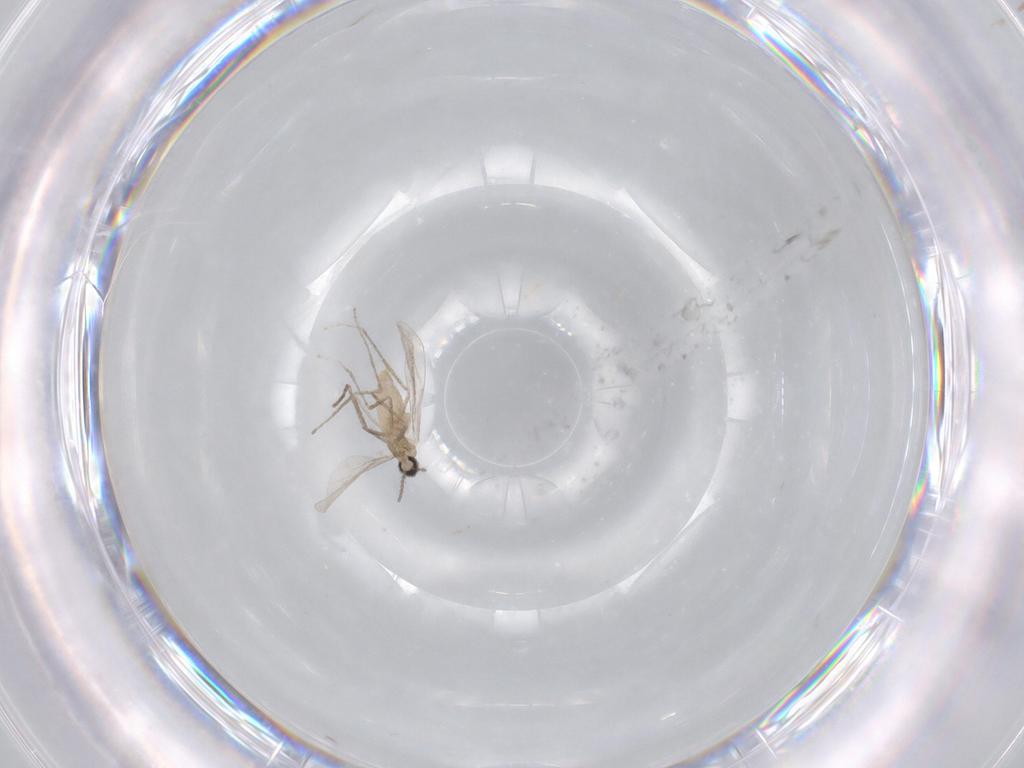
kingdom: Animalia
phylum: Arthropoda
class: Insecta
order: Diptera
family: Cecidomyiidae
